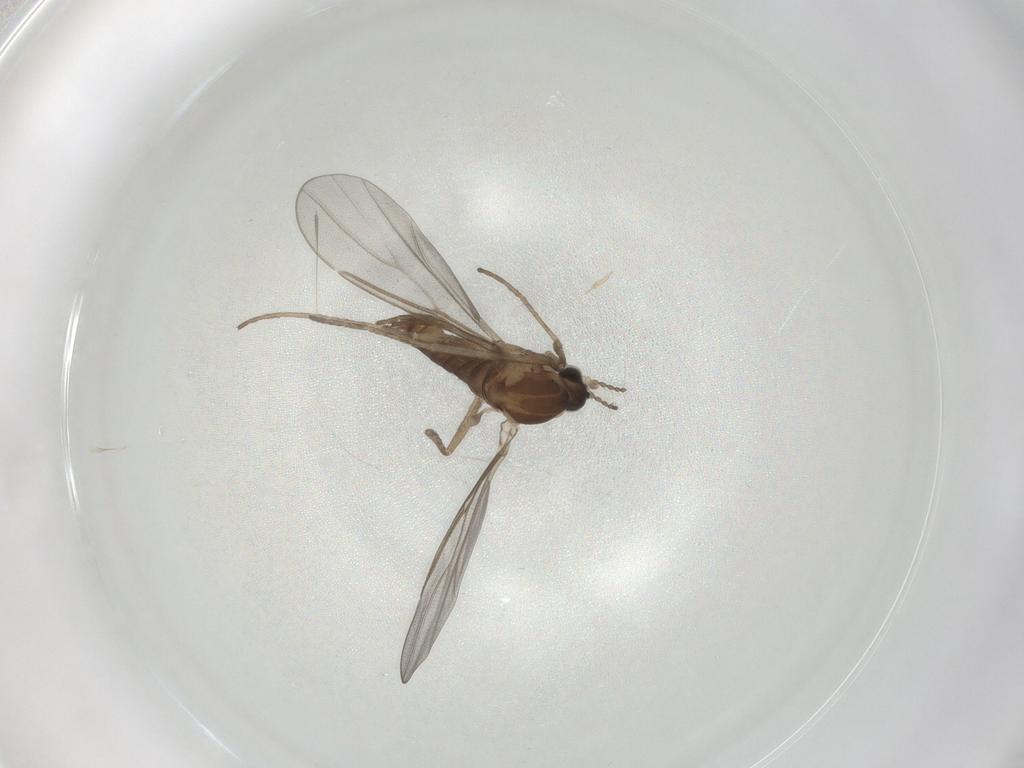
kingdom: Animalia
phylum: Arthropoda
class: Insecta
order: Diptera
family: Cecidomyiidae
